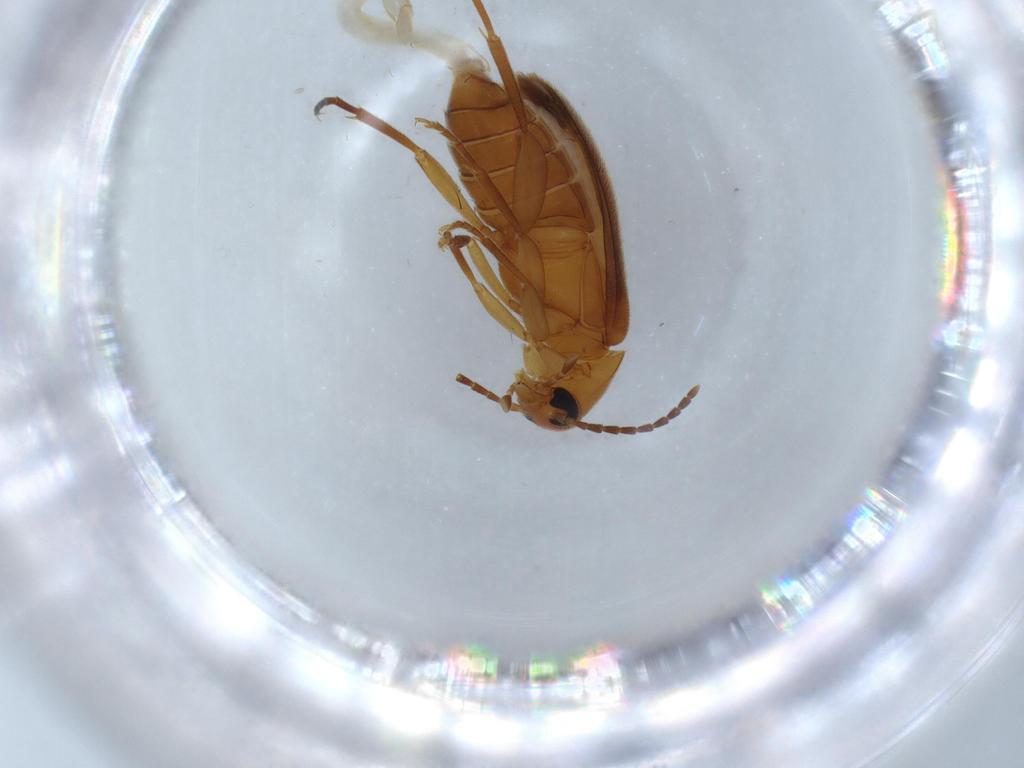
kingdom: Animalia
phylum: Arthropoda
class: Insecta
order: Coleoptera
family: Scraptiidae
